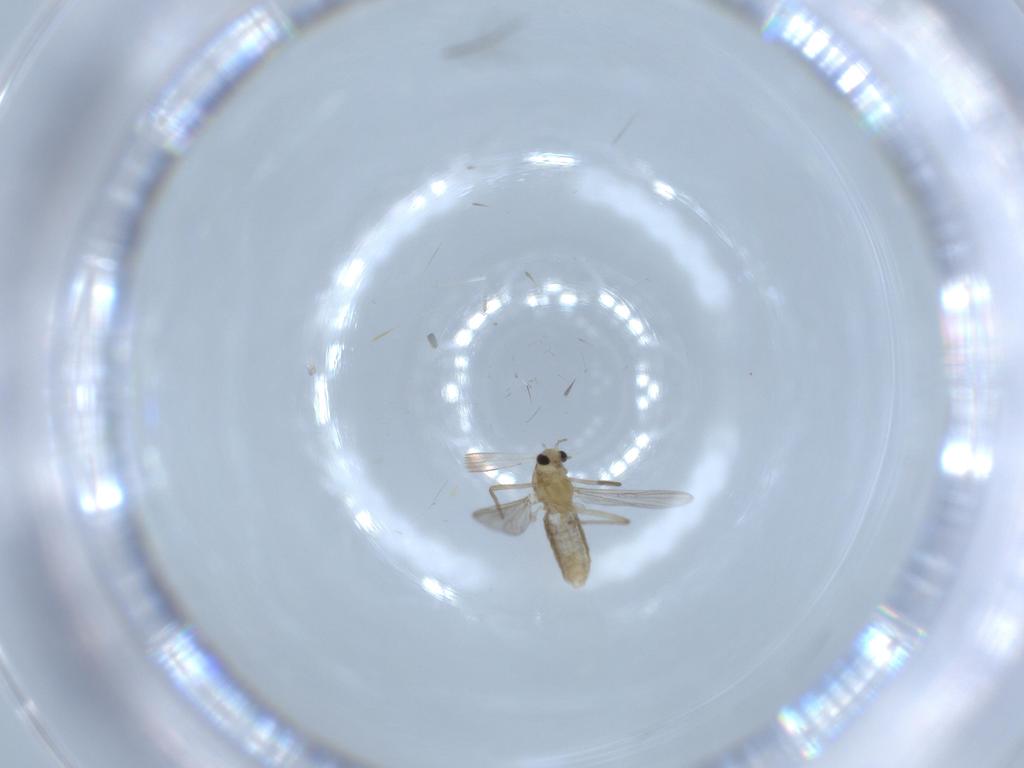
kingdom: Animalia
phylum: Arthropoda
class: Insecta
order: Diptera
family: Chironomidae
